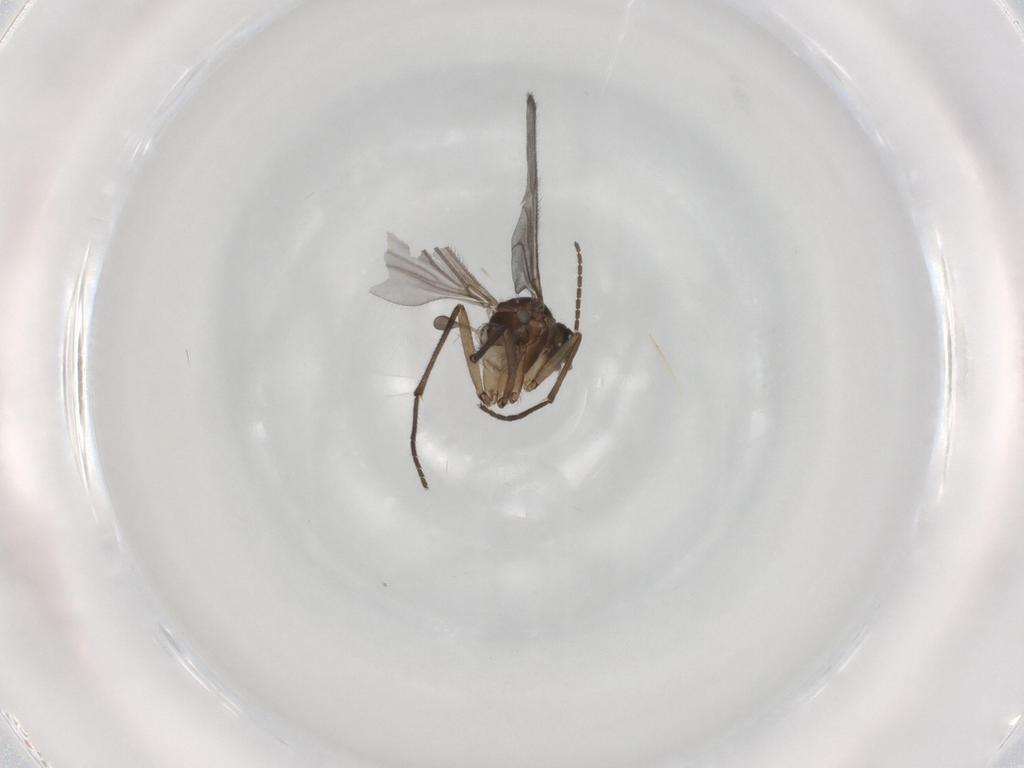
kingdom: Animalia
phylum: Arthropoda
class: Insecta
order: Diptera
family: Sciaridae
